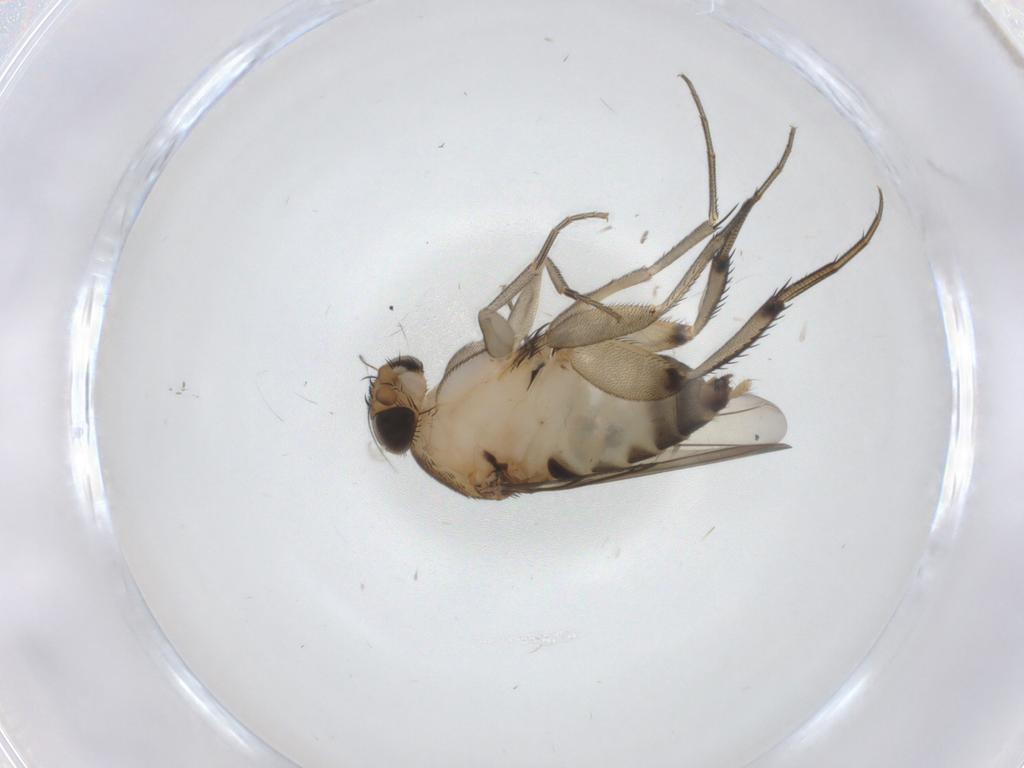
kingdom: Animalia
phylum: Arthropoda
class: Insecta
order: Diptera
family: Phoridae
